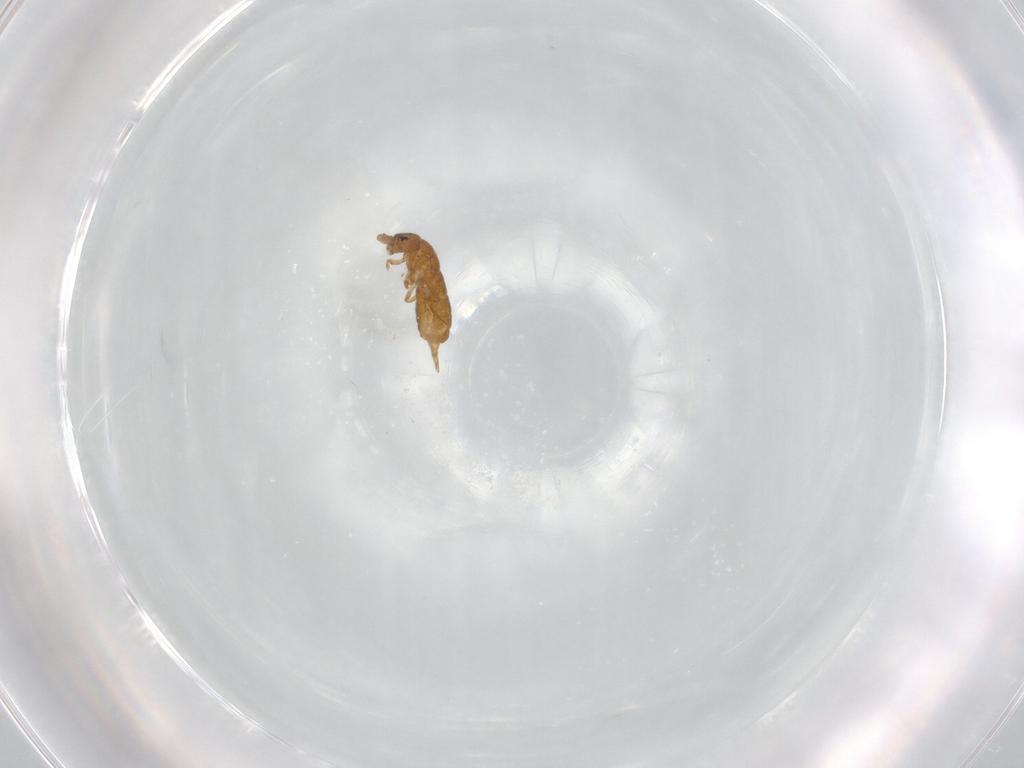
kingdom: Animalia
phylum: Arthropoda
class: Collembola
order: Entomobryomorpha
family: Isotomidae
